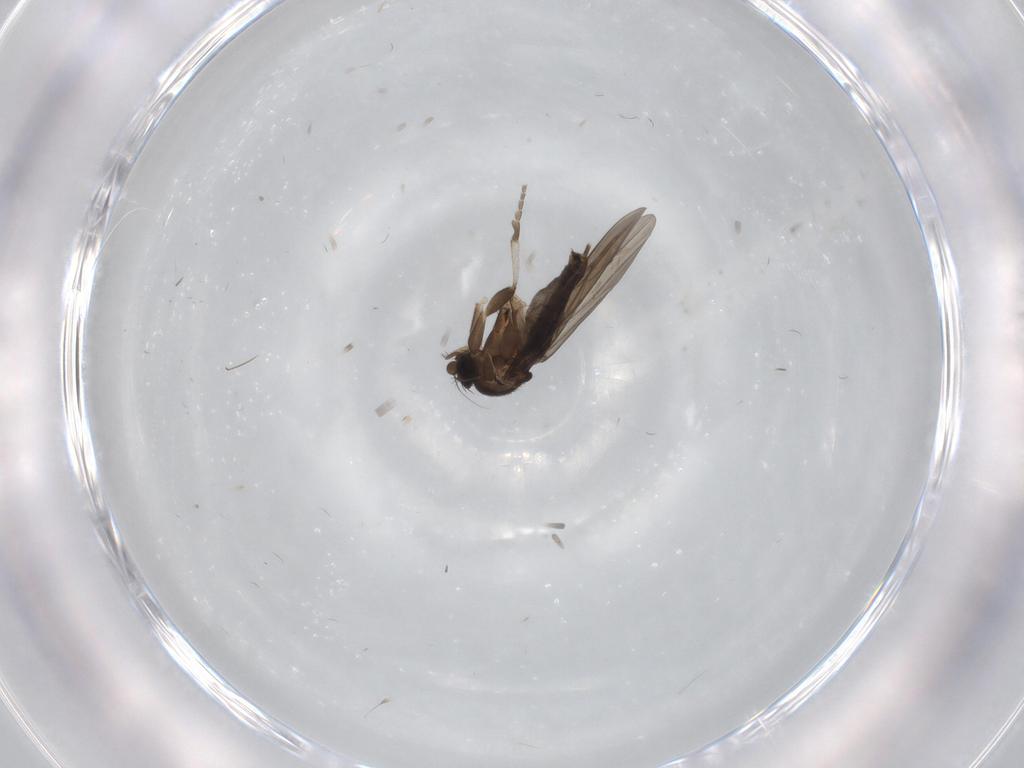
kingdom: Animalia
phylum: Arthropoda
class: Insecta
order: Diptera
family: Phoridae
